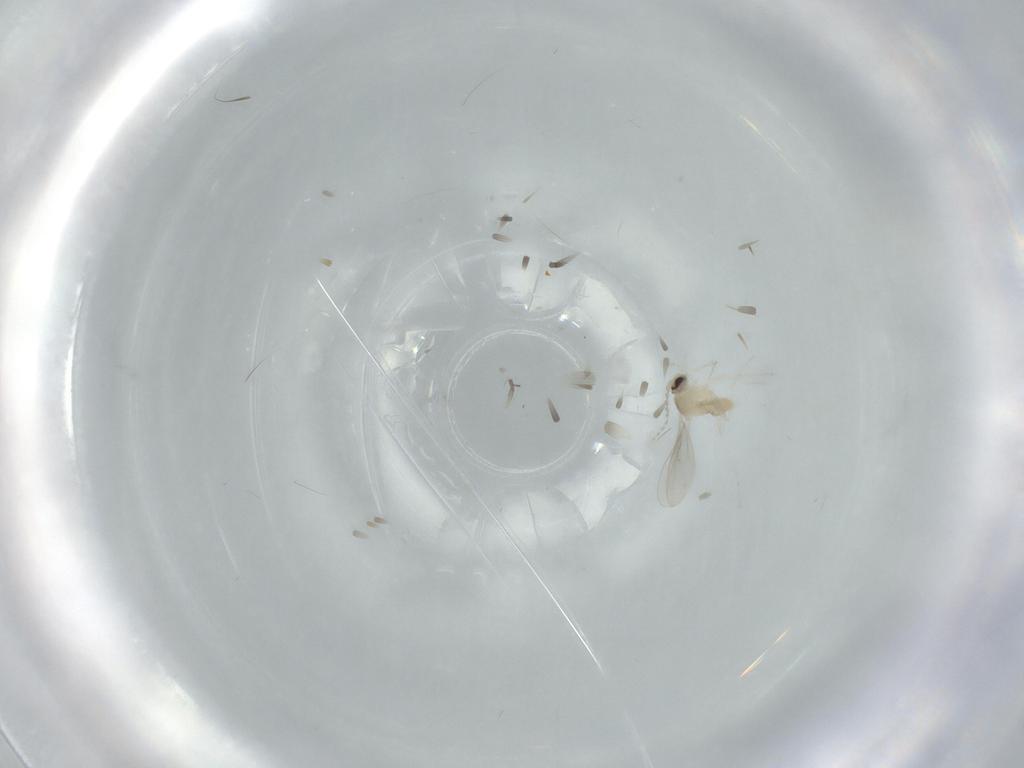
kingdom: Animalia
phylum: Arthropoda
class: Insecta
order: Diptera
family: Cecidomyiidae
